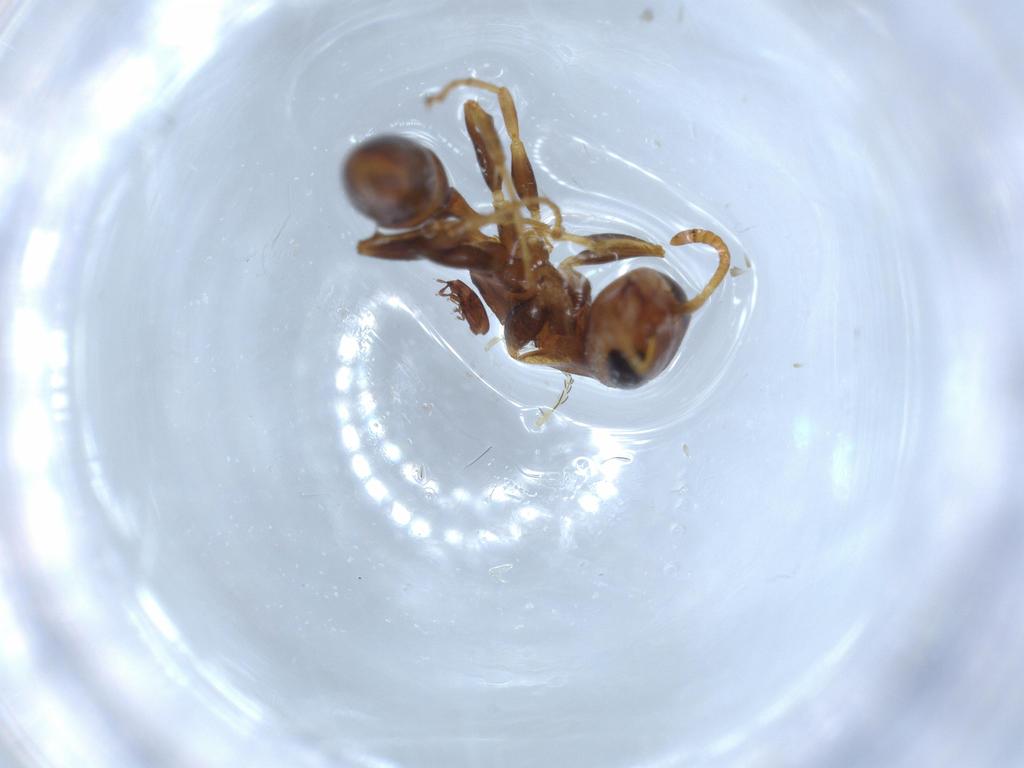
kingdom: Animalia
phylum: Arthropoda
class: Insecta
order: Hymenoptera
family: Formicidae
